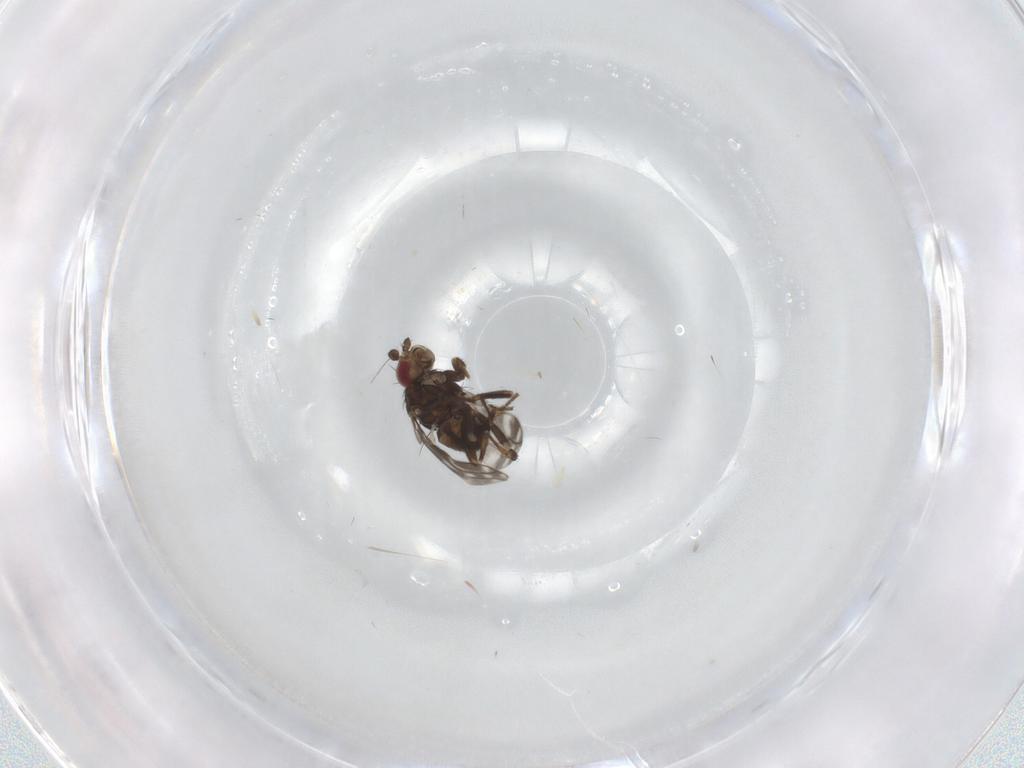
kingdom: Animalia
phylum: Arthropoda
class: Insecta
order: Diptera
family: Sphaeroceridae
